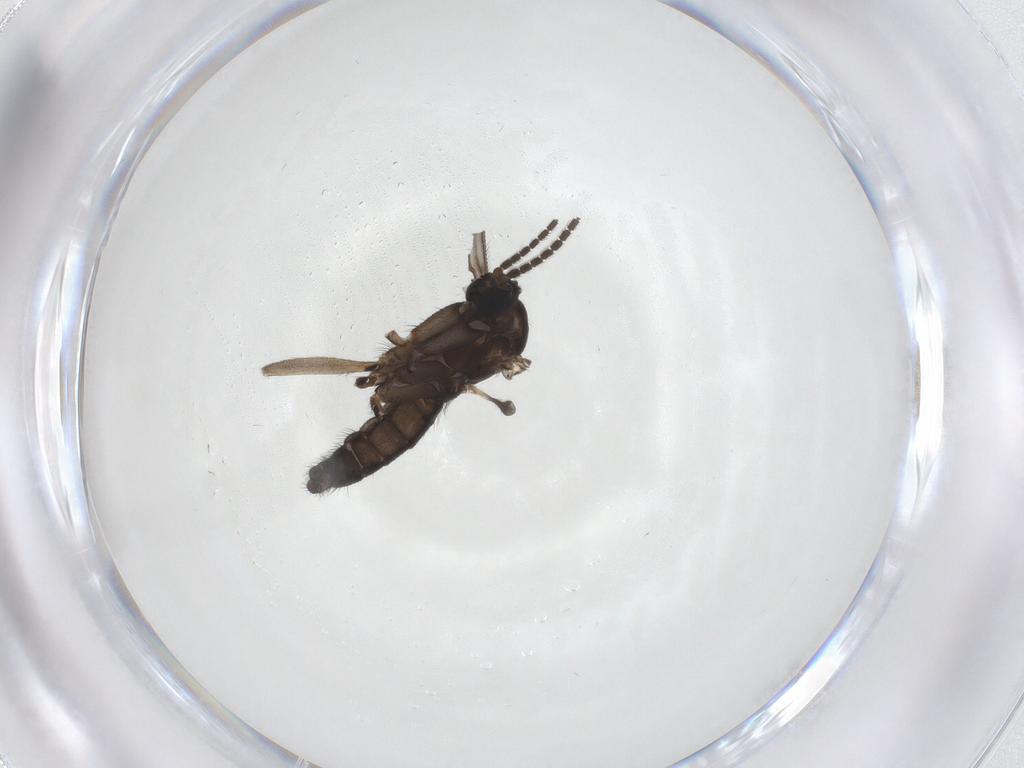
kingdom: Animalia
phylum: Arthropoda
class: Insecta
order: Diptera
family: Sciaridae
